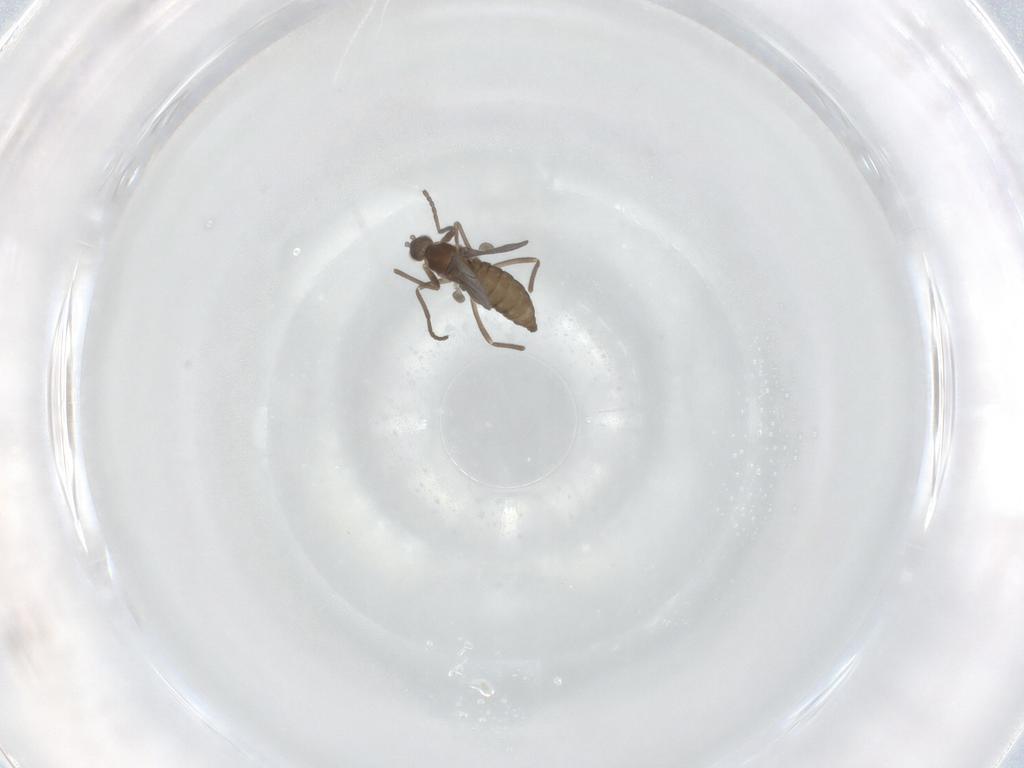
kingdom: Animalia
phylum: Arthropoda
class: Insecta
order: Diptera
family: Cecidomyiidae
